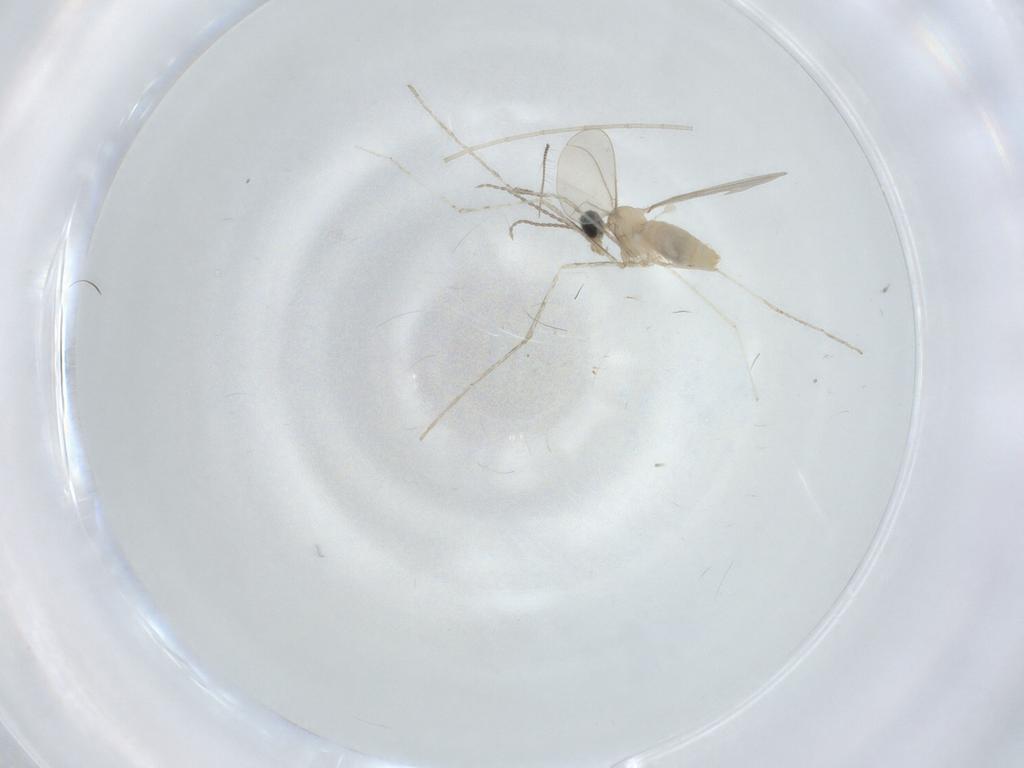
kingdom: Animalia
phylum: Arthropoda
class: Insecta
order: Diptera
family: Cecidomyiidae
